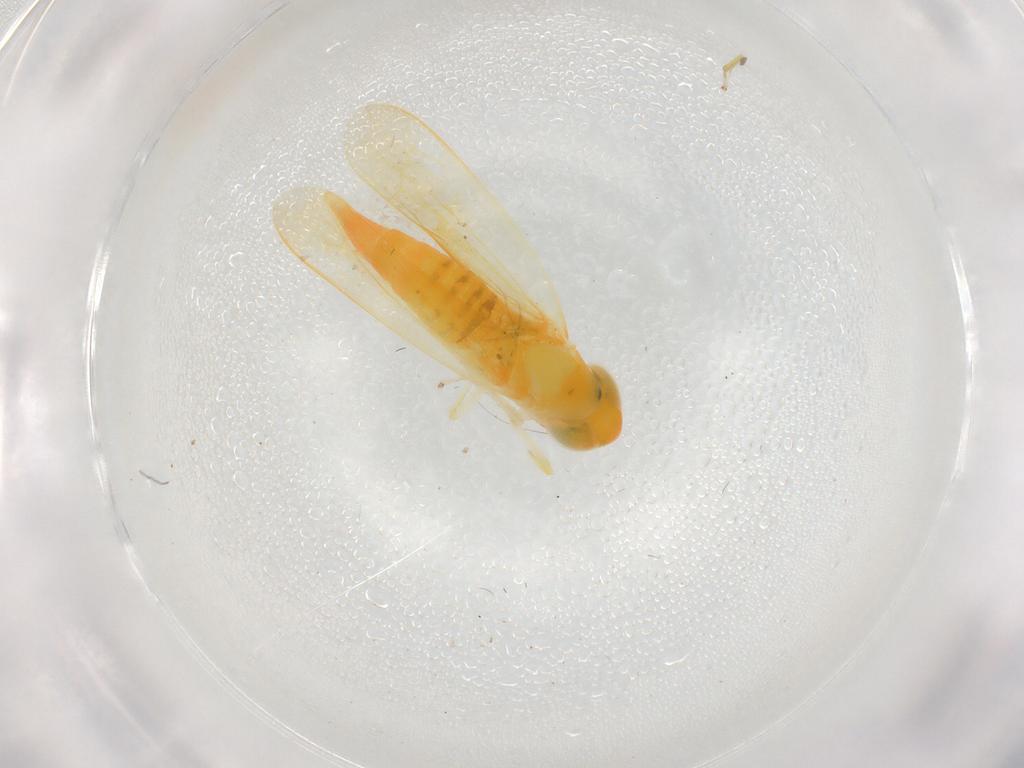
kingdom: Animalia
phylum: Arthropoda
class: Insecta
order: Hemiptera
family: Cicadellidae
